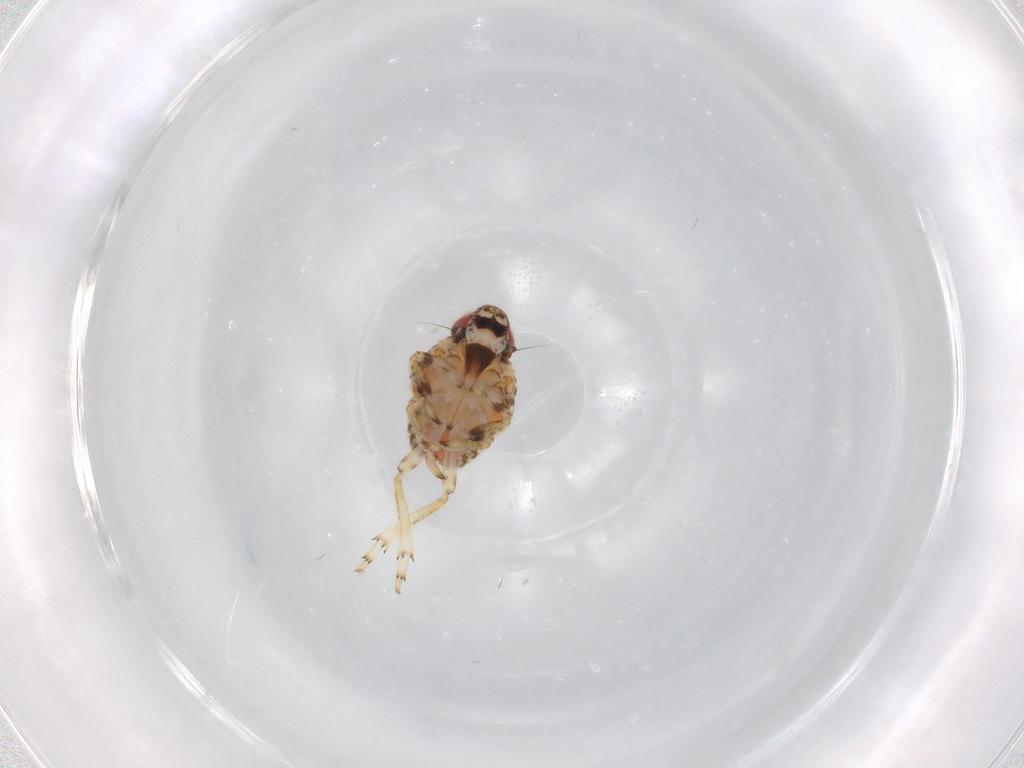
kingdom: Animalia
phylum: Arthropoda
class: Insecta
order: Hemiptera
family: Issidae
